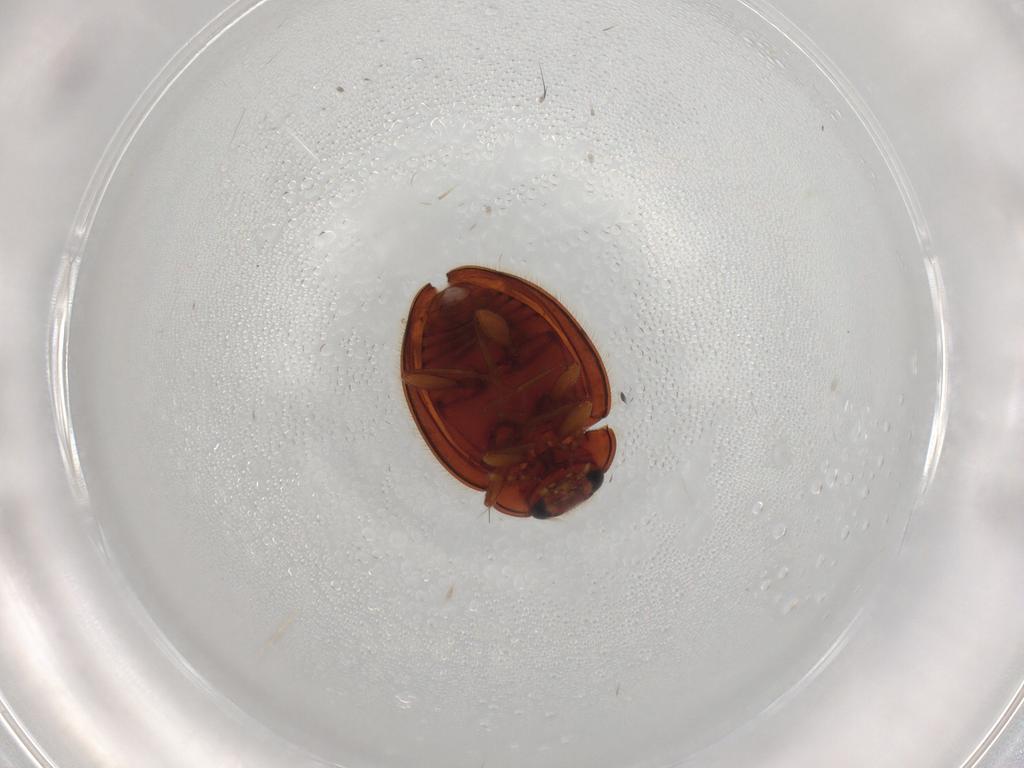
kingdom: Animalia
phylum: Arthropoda
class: Insecta
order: Coleoptera
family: Anamorphidae
